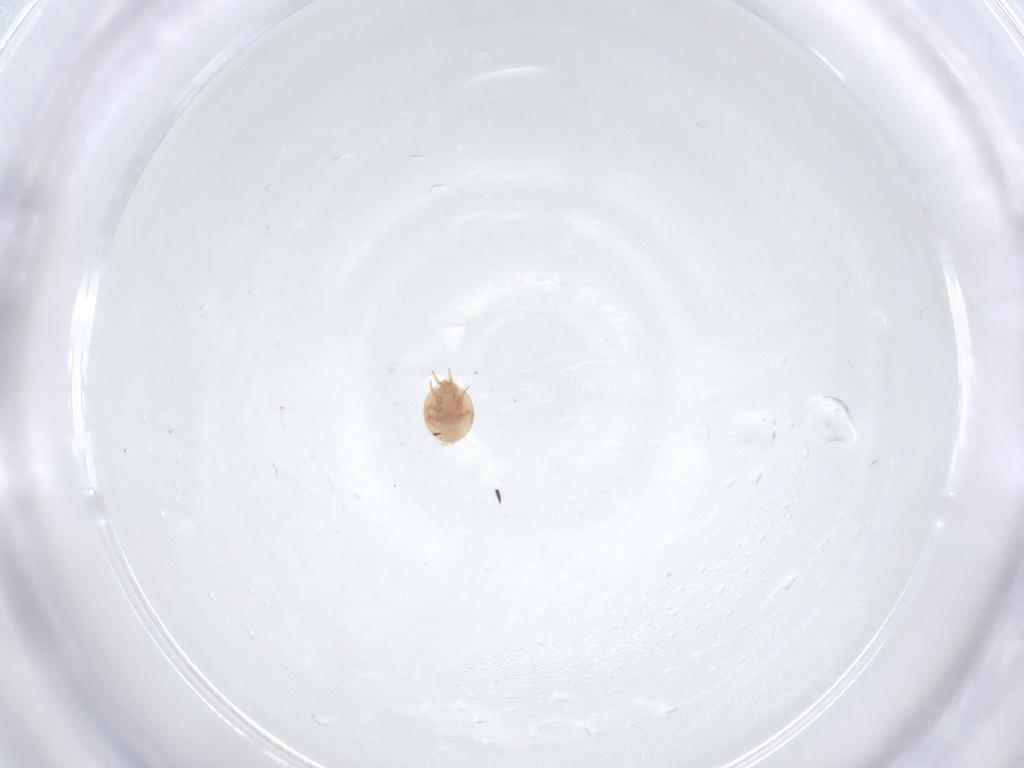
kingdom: Animalia
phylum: Arthropoda
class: Arachnida
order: Mesostigmata
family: Trematuridae
